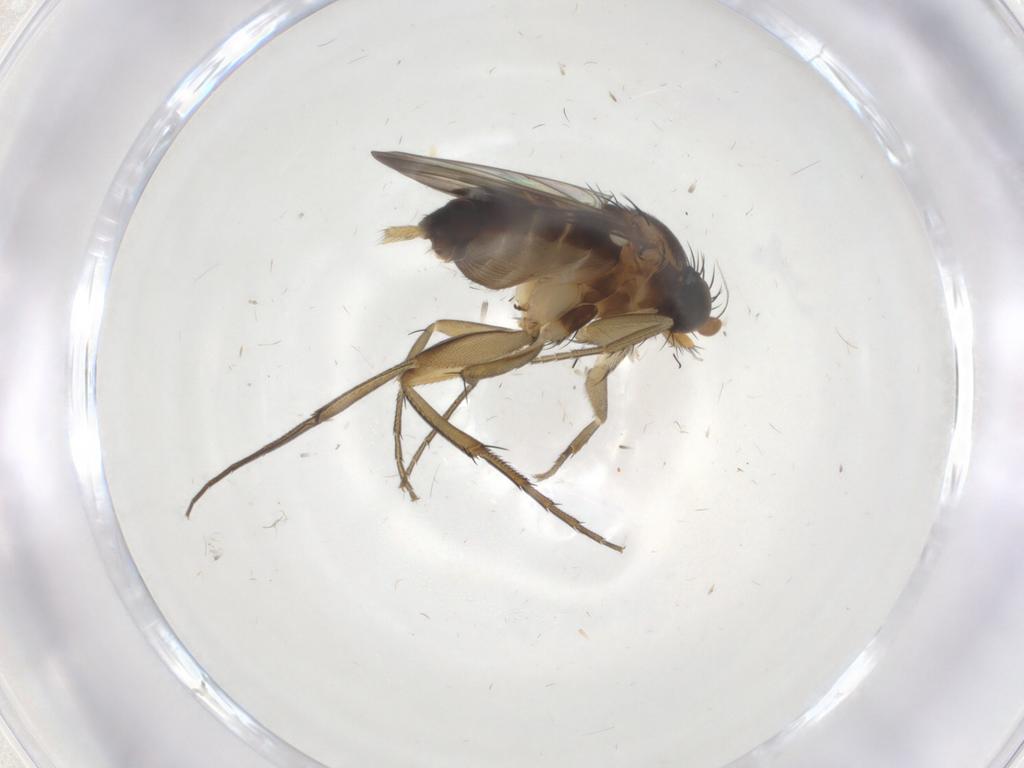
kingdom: Animalia
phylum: Arthropoda
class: Insecta
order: Diptera
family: Phoridae
